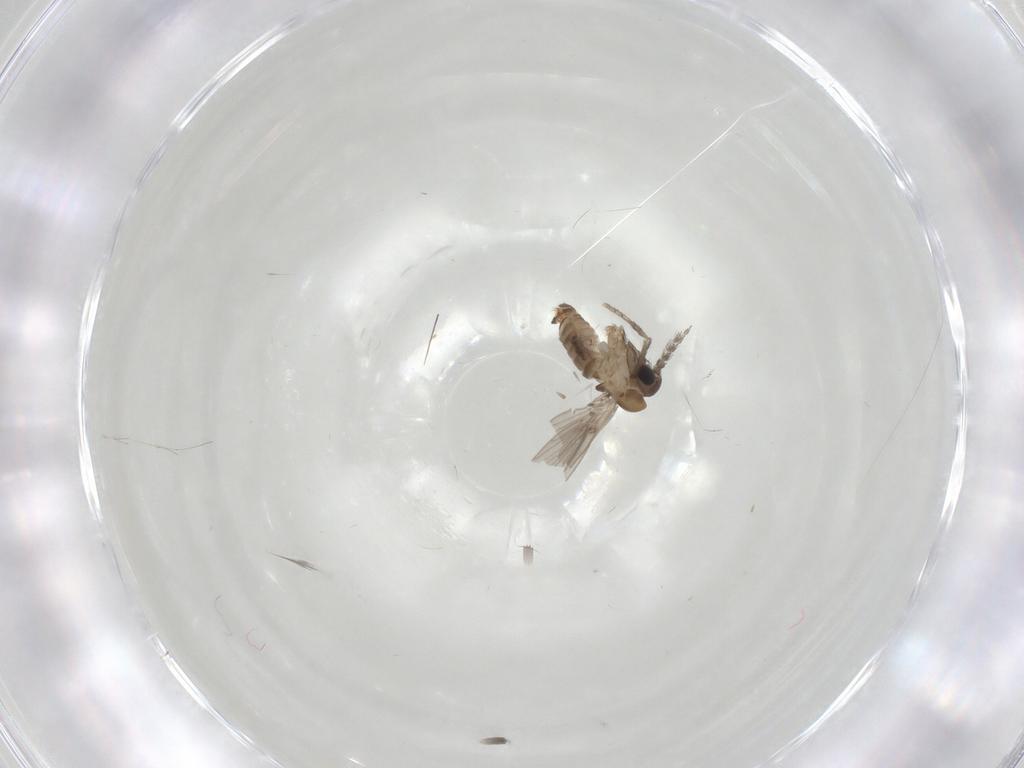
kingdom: Animalia
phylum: Arthropoda
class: Insecta
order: Diptera
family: Psychodidae
